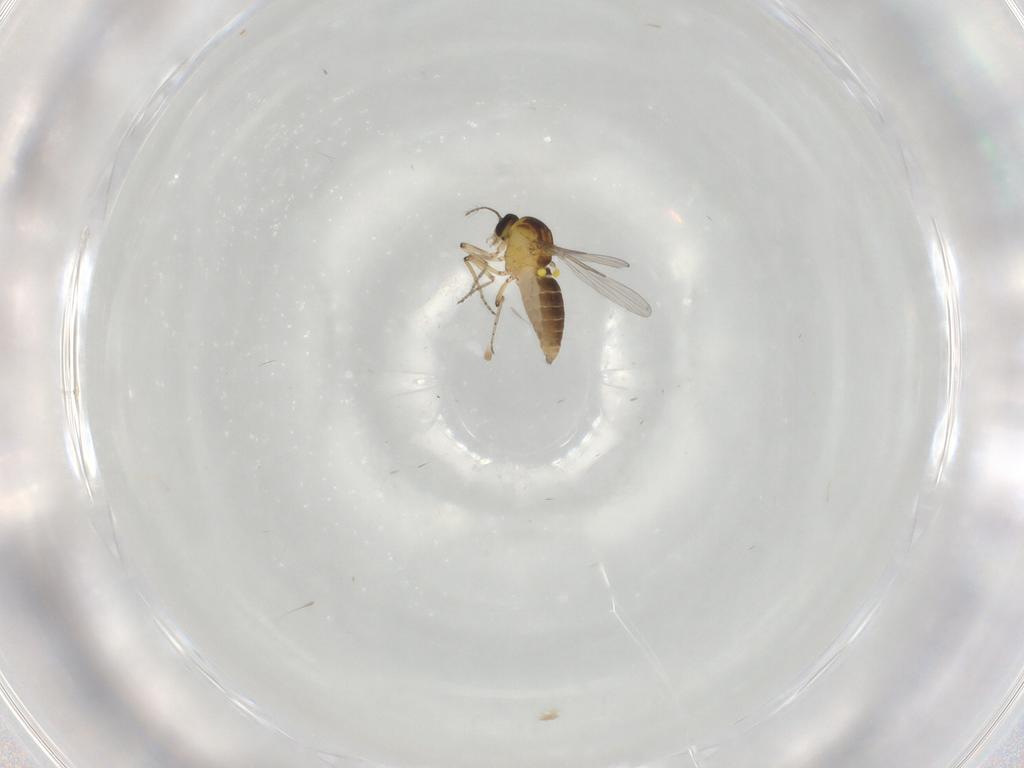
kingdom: Animalia
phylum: Arthropoda
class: Insecta
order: Diptera
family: Ceratopogonidae
